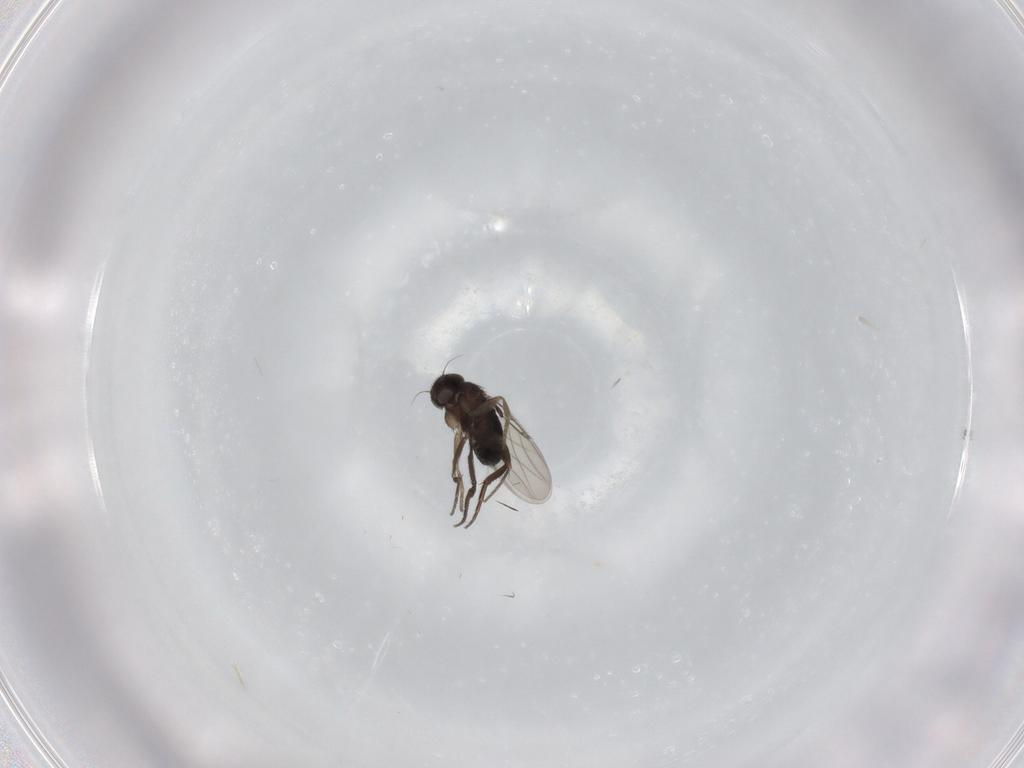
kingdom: Animalia
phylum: Arthropoda
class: Insecta
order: Diptera
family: Phoridae
